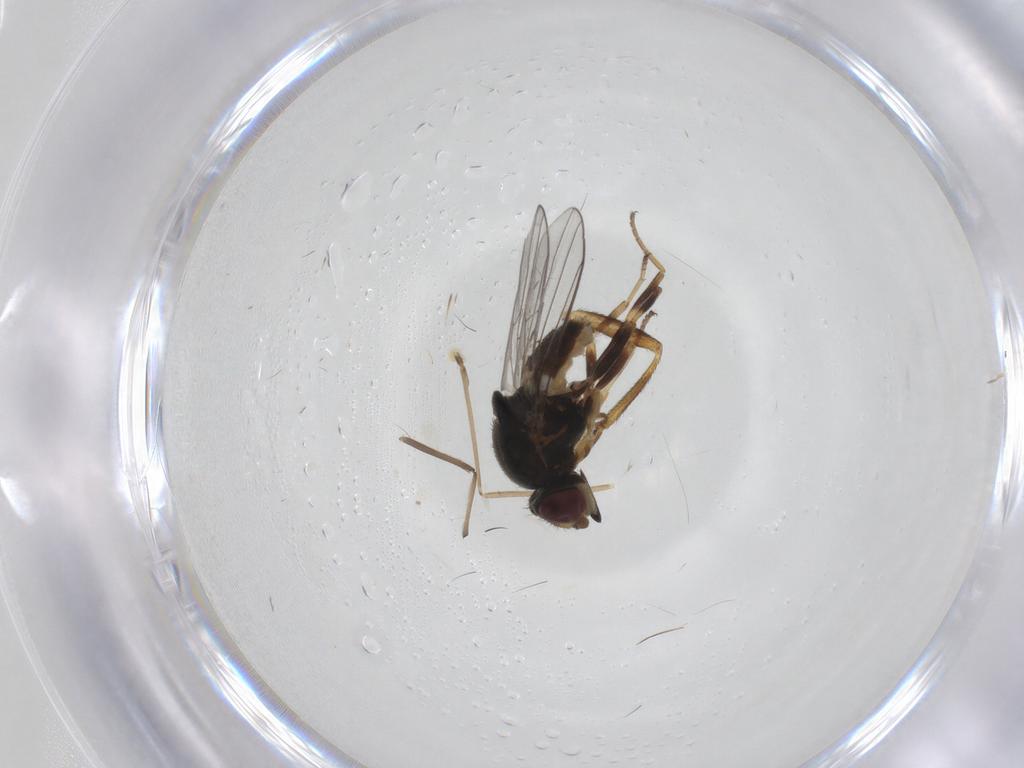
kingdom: Animalia
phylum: Arthropoda
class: Insecta
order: Diptera
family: Chloropidae
